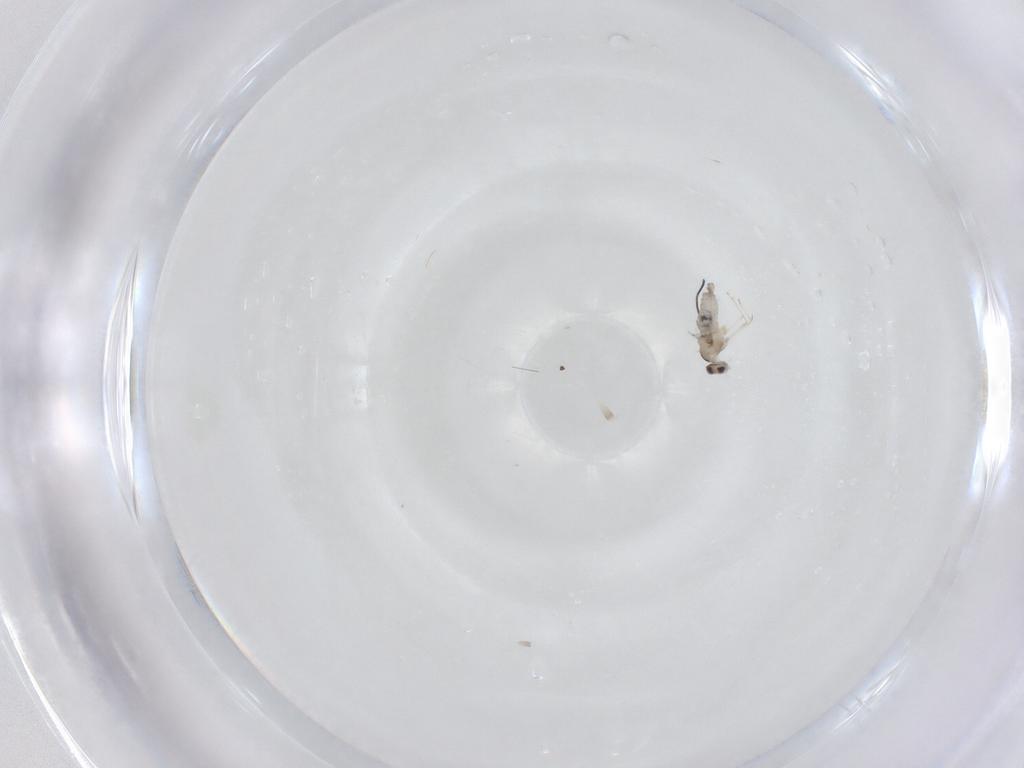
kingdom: Animalia
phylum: Arthropoda
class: Insecta
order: Diptera
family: Cecidomyiidae
